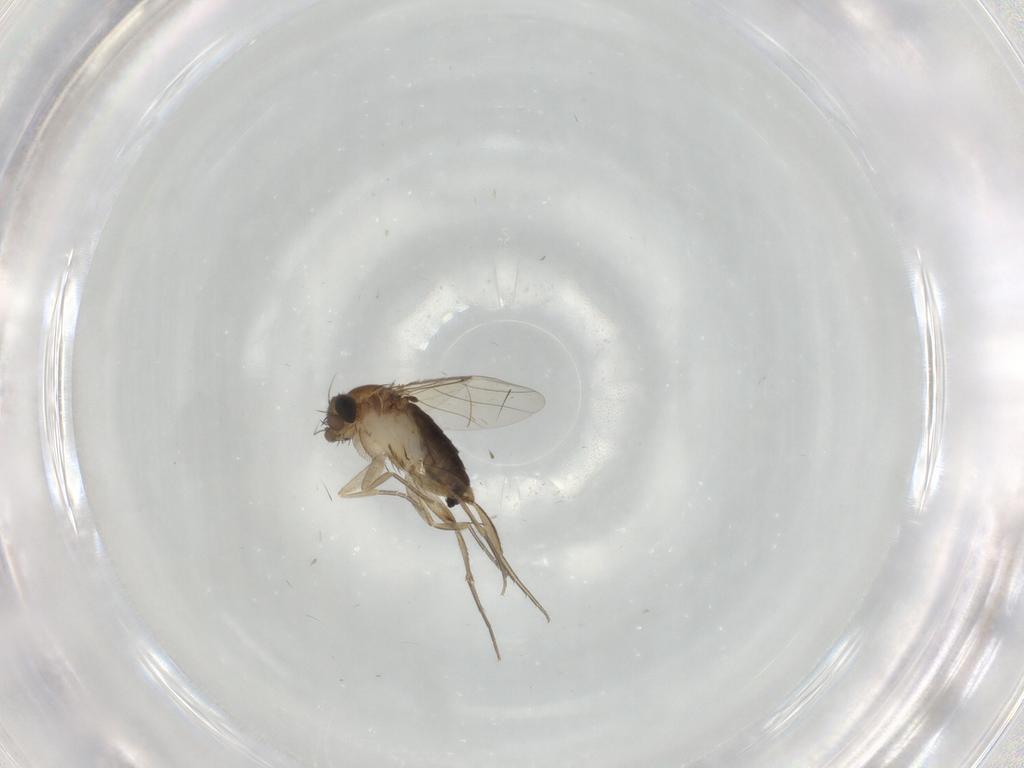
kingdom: Animalia
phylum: Arthropoda
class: Insecta
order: Diptera
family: Phoridae
